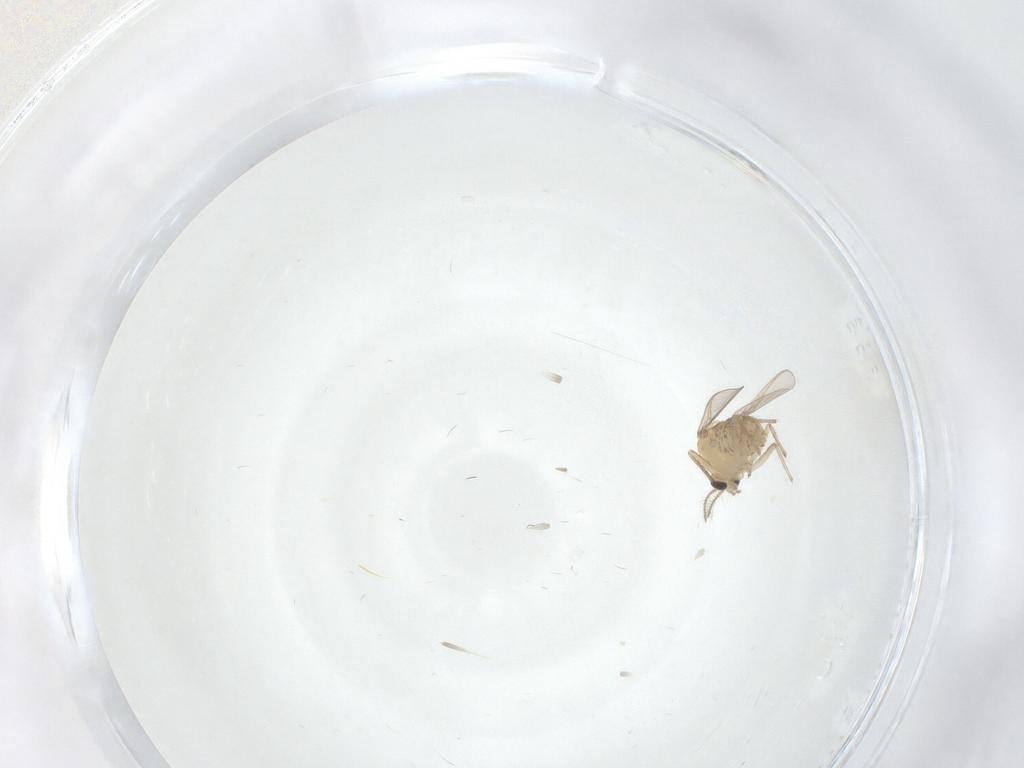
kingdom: Animalia
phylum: Arthropoda
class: Insecta
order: Diptera
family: Chironomidae
